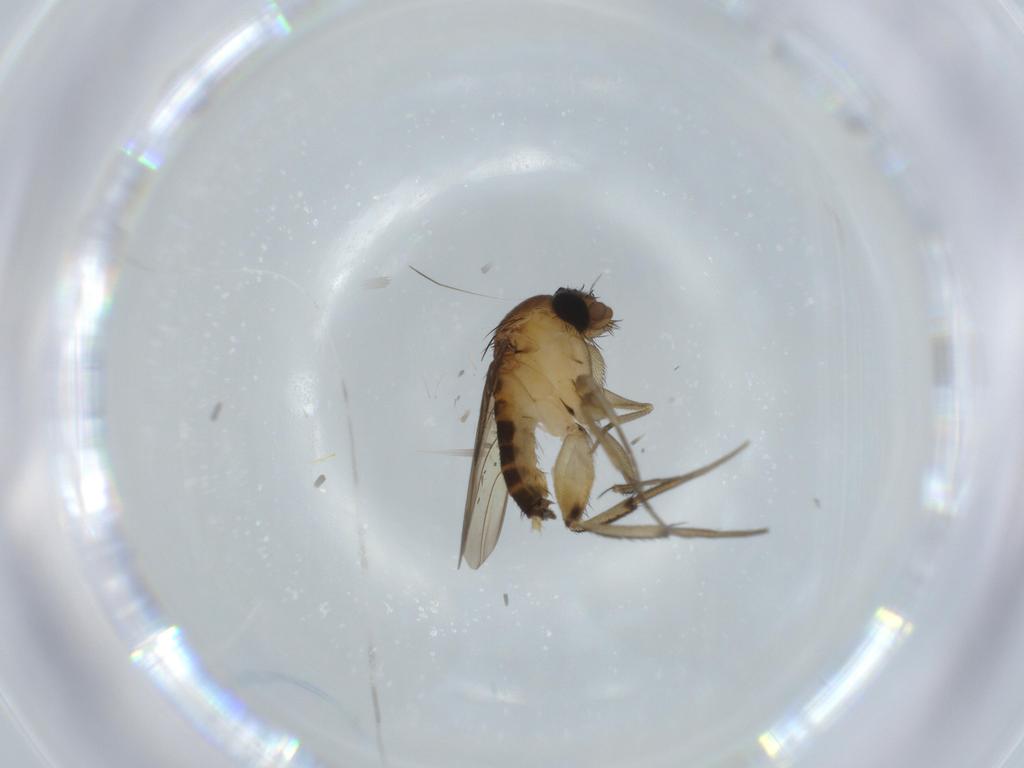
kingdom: Animalia
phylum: Arthropoda
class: Insecta
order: Diptera
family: Phoridae
